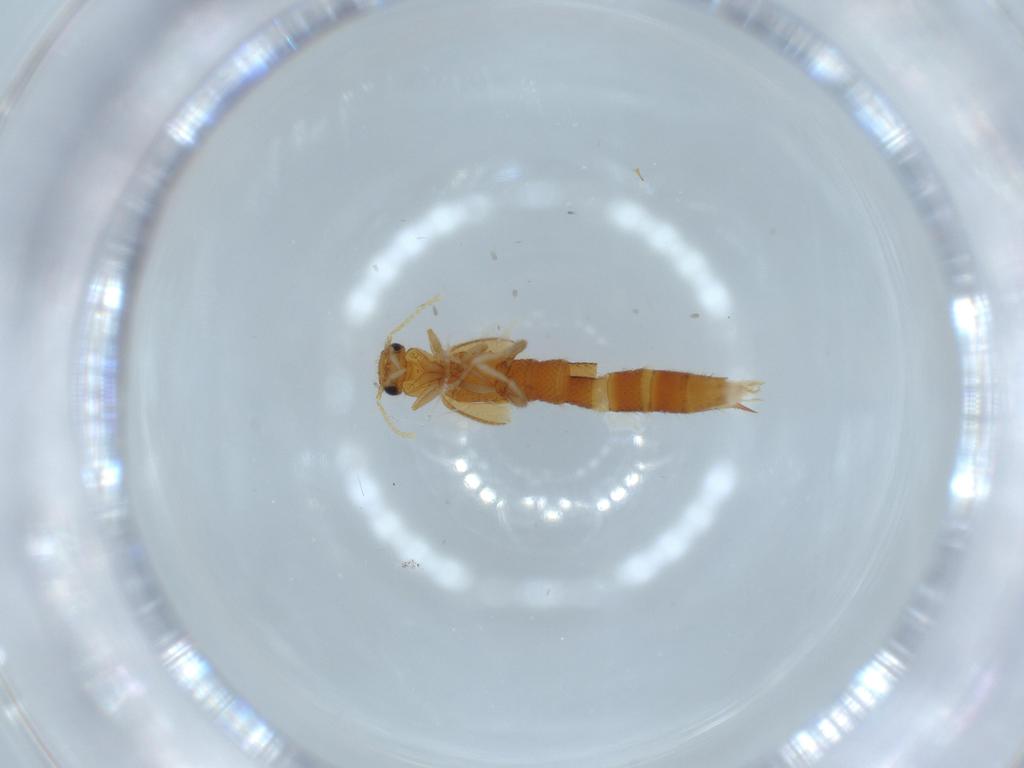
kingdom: Animalia
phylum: Arthropoda
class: Insecta
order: Coleoptera
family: Staphylinidae
